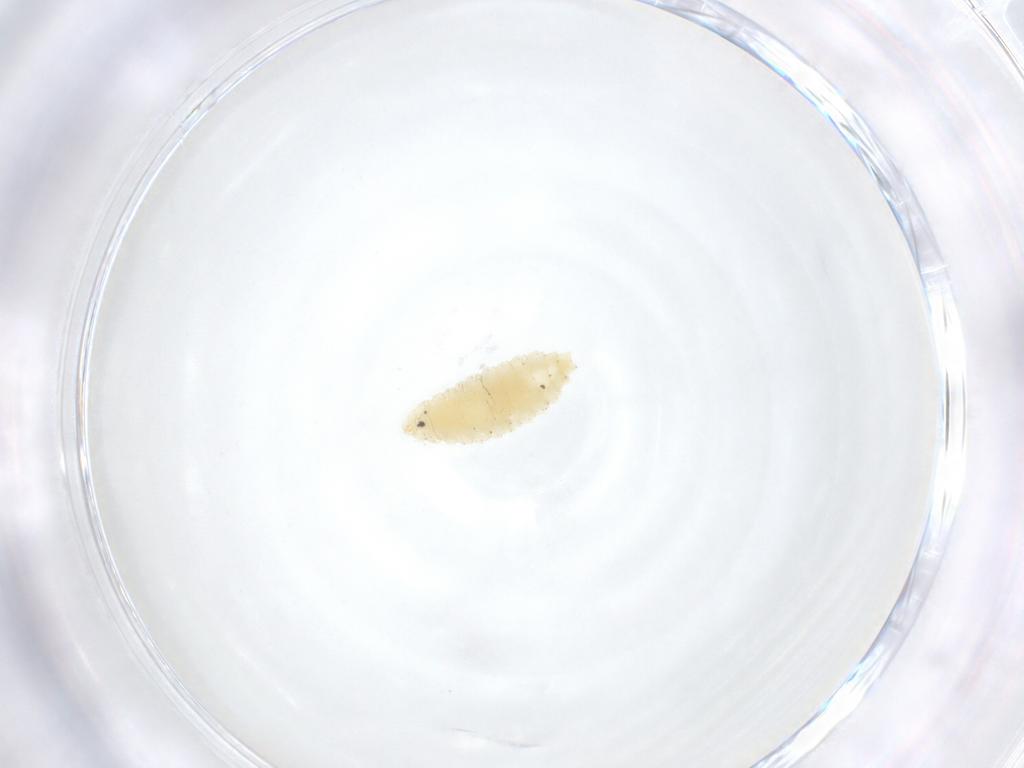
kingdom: Animalia
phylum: Arthropoda
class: Insecta
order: Diptera
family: Cecidomyiidae
